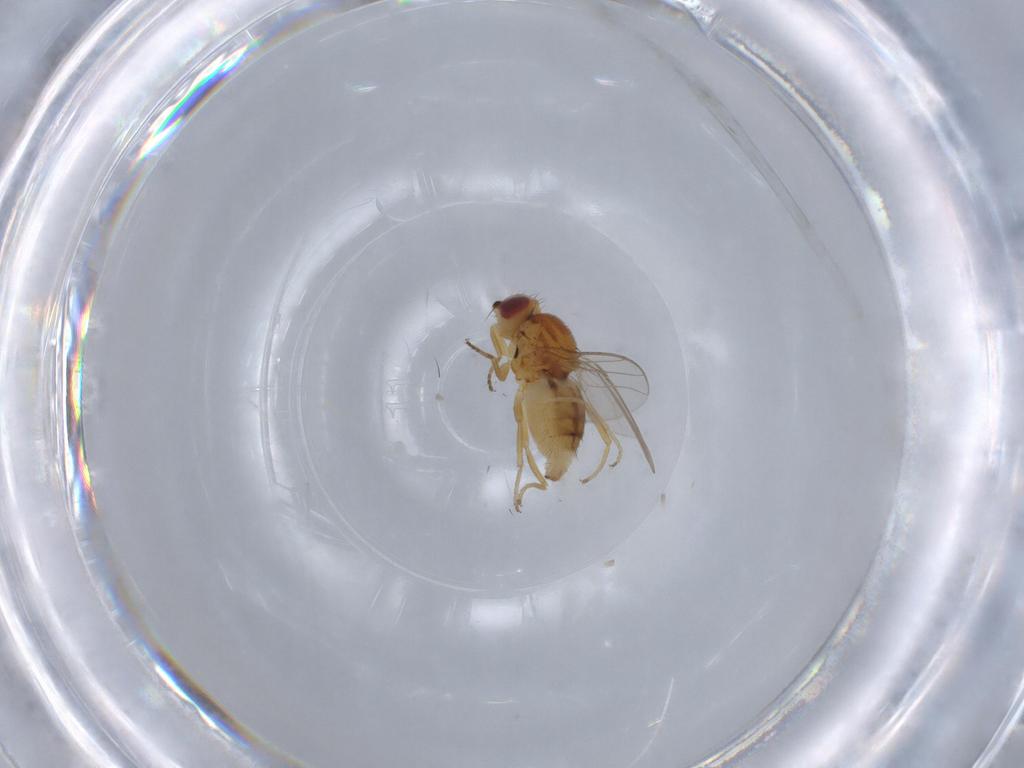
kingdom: Animalia
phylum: Arthropoda
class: Insecta
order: Diptera
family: Chloropidae
